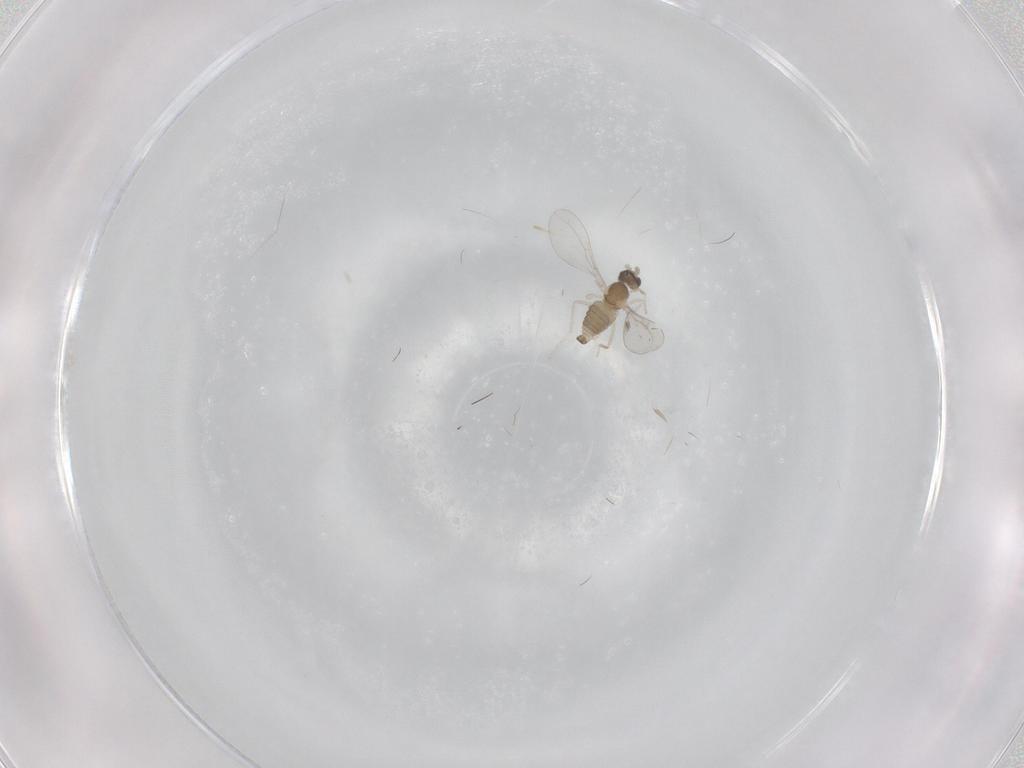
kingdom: Animalia
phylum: Arthropoda
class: Insecta
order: Diptera
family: Cecidomyiidae
